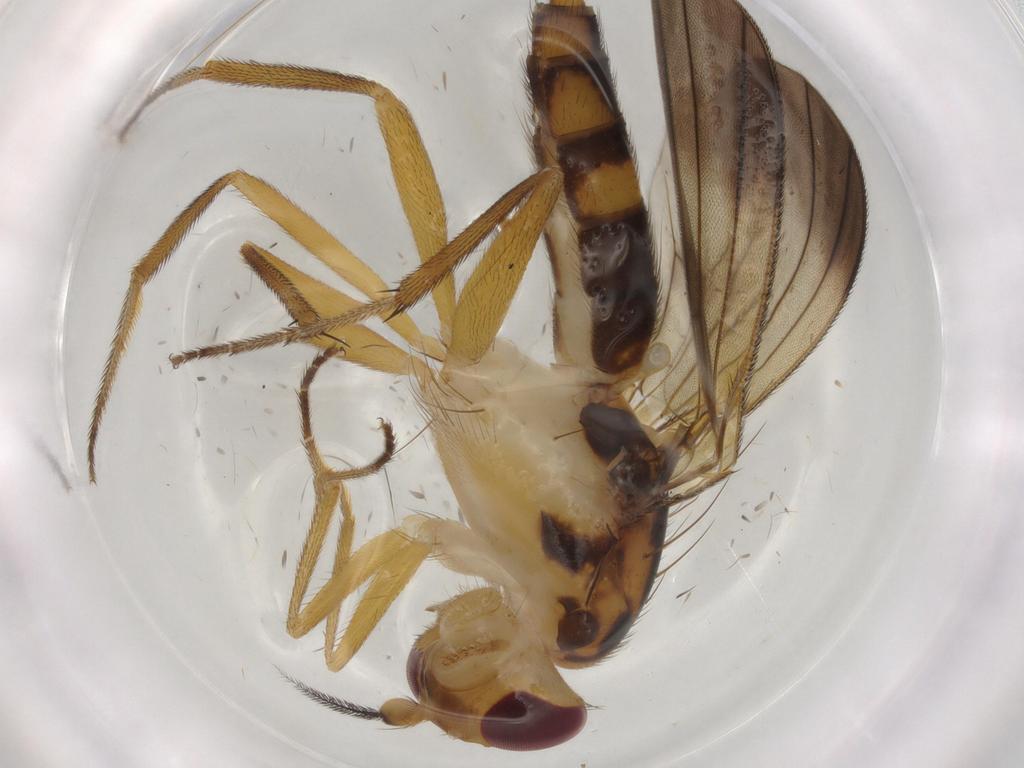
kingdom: Animalia
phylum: Arthropoda
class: Insecta
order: Diptera
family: Clusiidae
